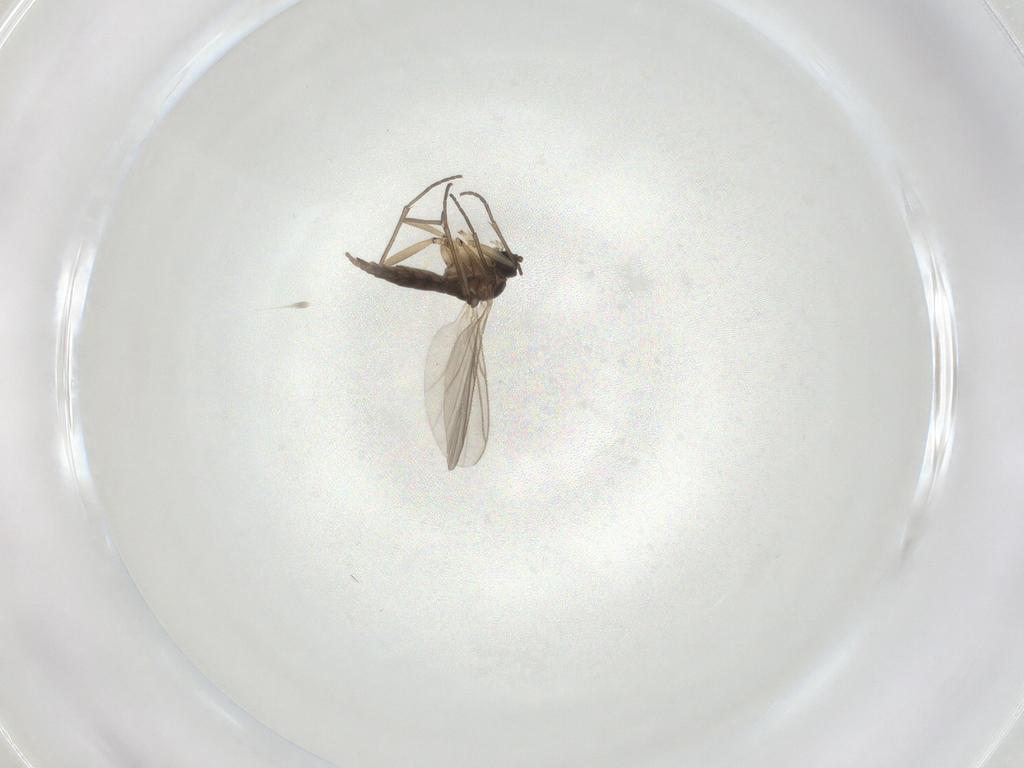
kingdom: Animalia
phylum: Arthropoda
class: Insecta
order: Diptera
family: Sciaridae
